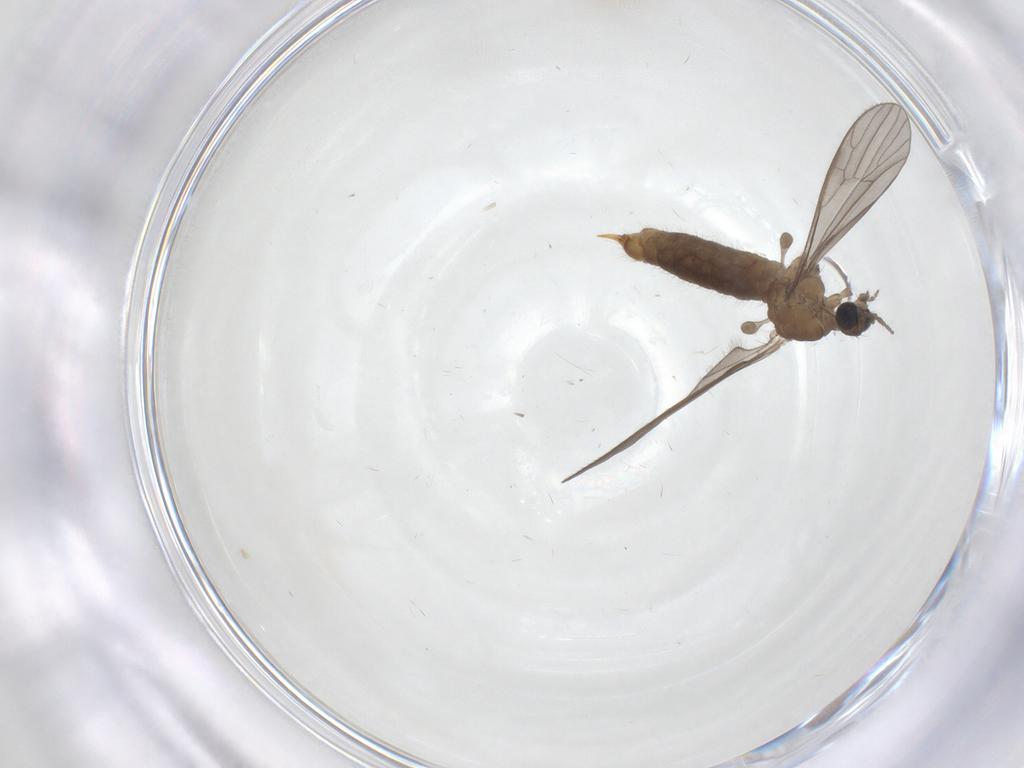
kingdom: Animalia
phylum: Arthropoda
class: Insecta
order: Diptera
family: Limoniidae
